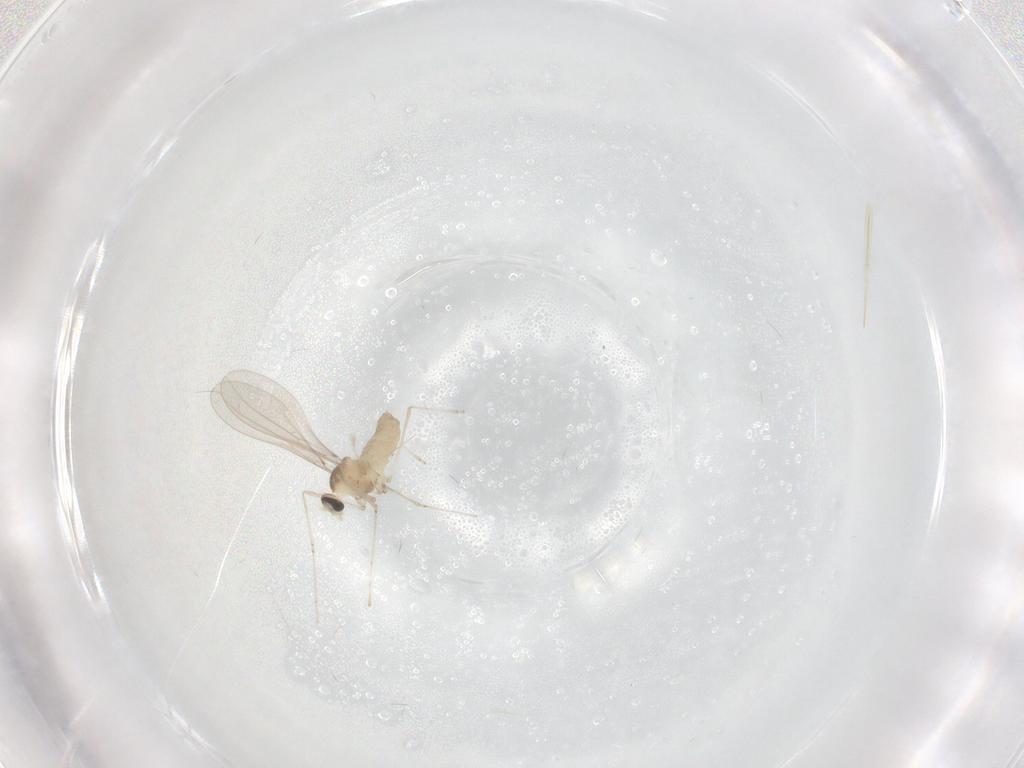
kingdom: Animalia
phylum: Arthropoda
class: Insecta
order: Diptera
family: Cecidomyiidae
